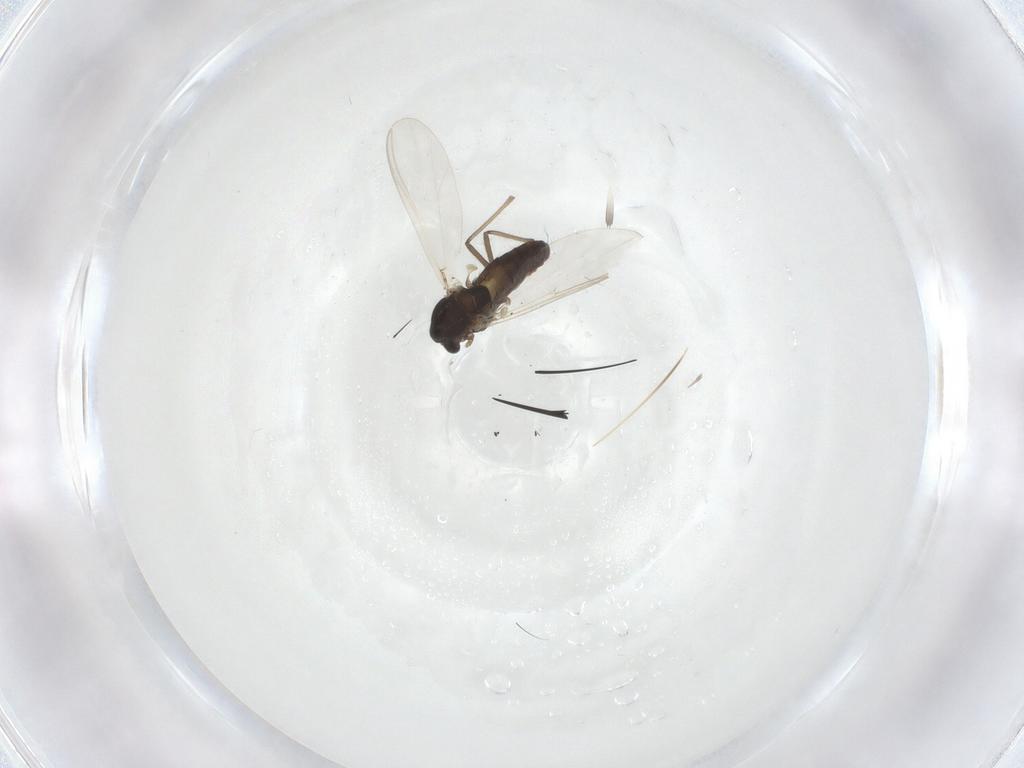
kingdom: Animalia
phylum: Arthropoda
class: Insecta
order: Diptera
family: Chironomidae
